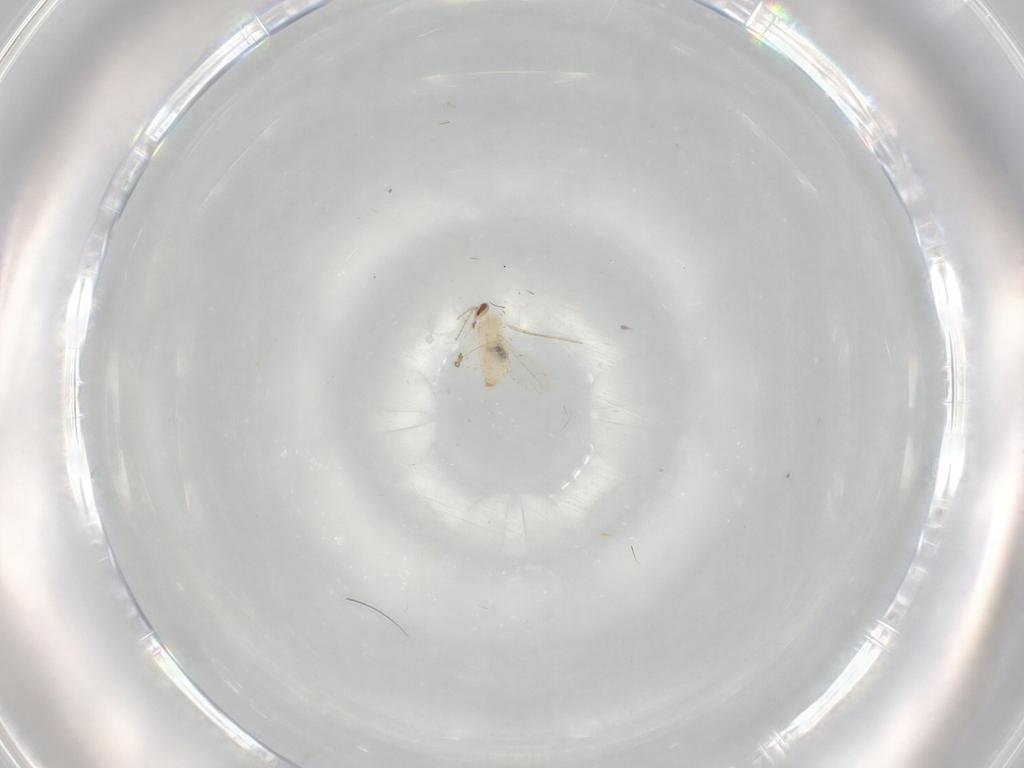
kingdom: Animalia
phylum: Arthropoda
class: Insecta
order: Diptera
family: Cecidomyiidae
